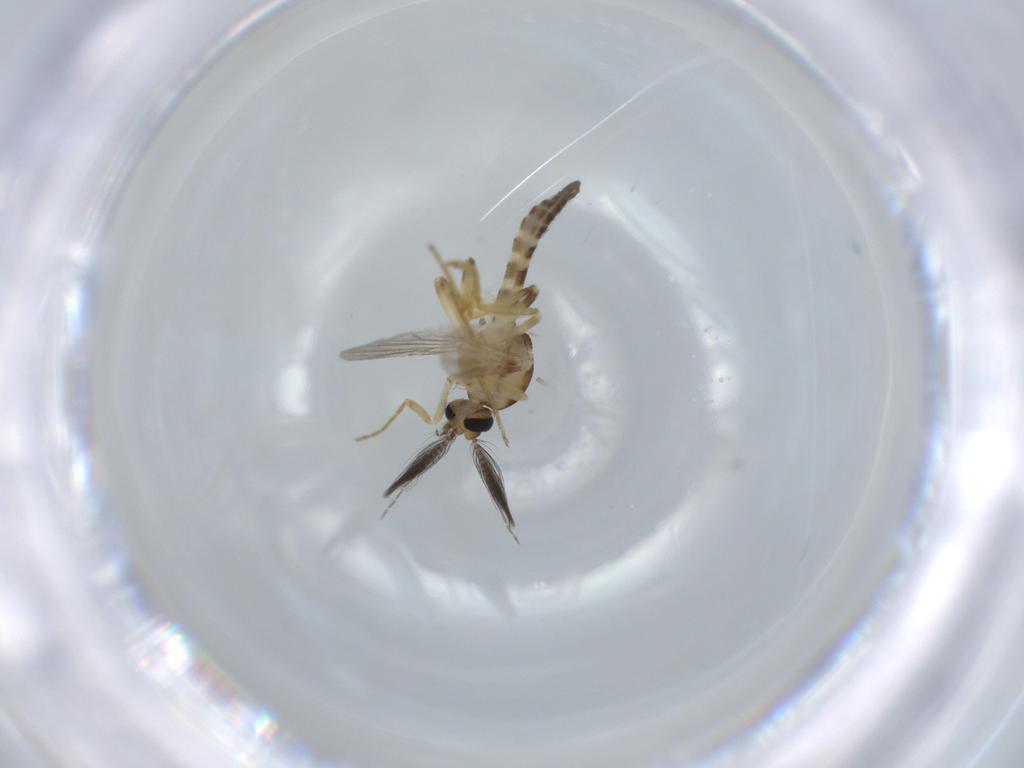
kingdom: Animalia
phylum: Arthropoda
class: Insecta
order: Diptera
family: Ceratopogonidae
